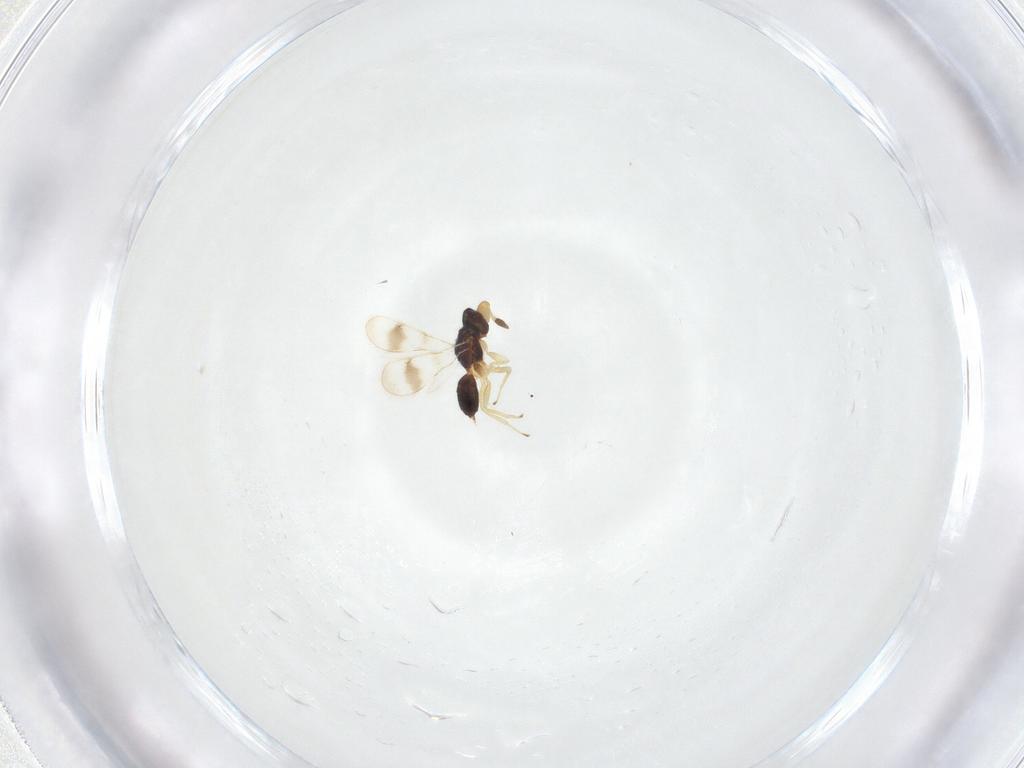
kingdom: Animalia
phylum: Arthropoda
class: Insecta
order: Hymenoptera
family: Tetracampidae
